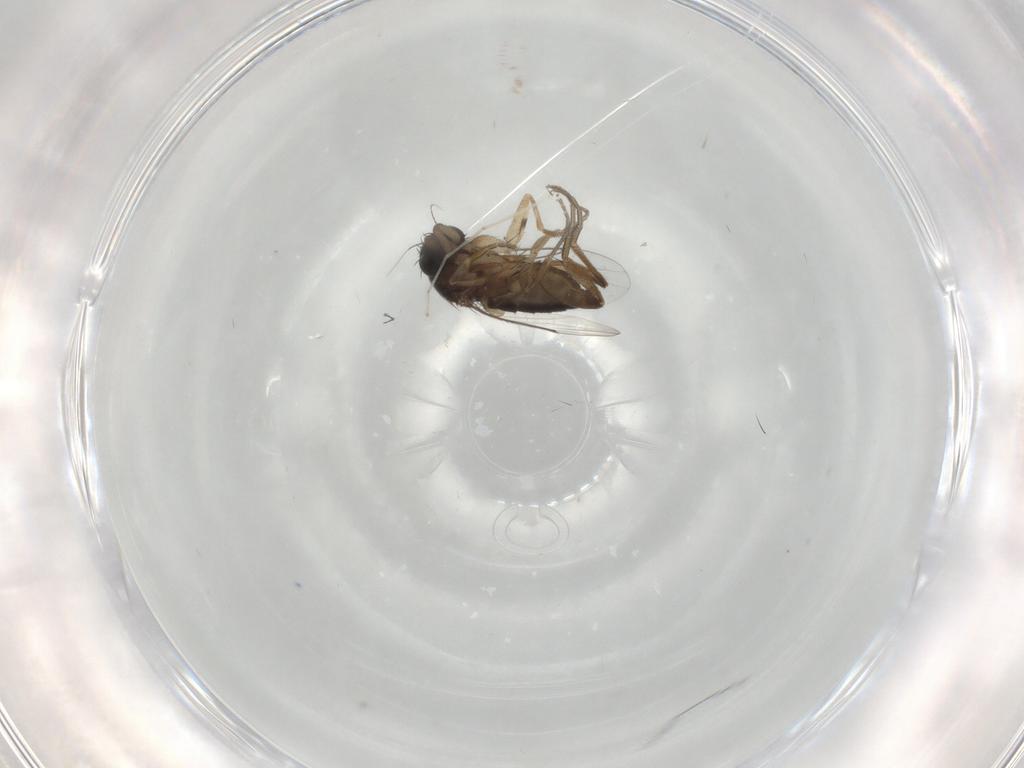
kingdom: Animalia
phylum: Arthropoda
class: Insecta
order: Diptera
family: Phoridae
